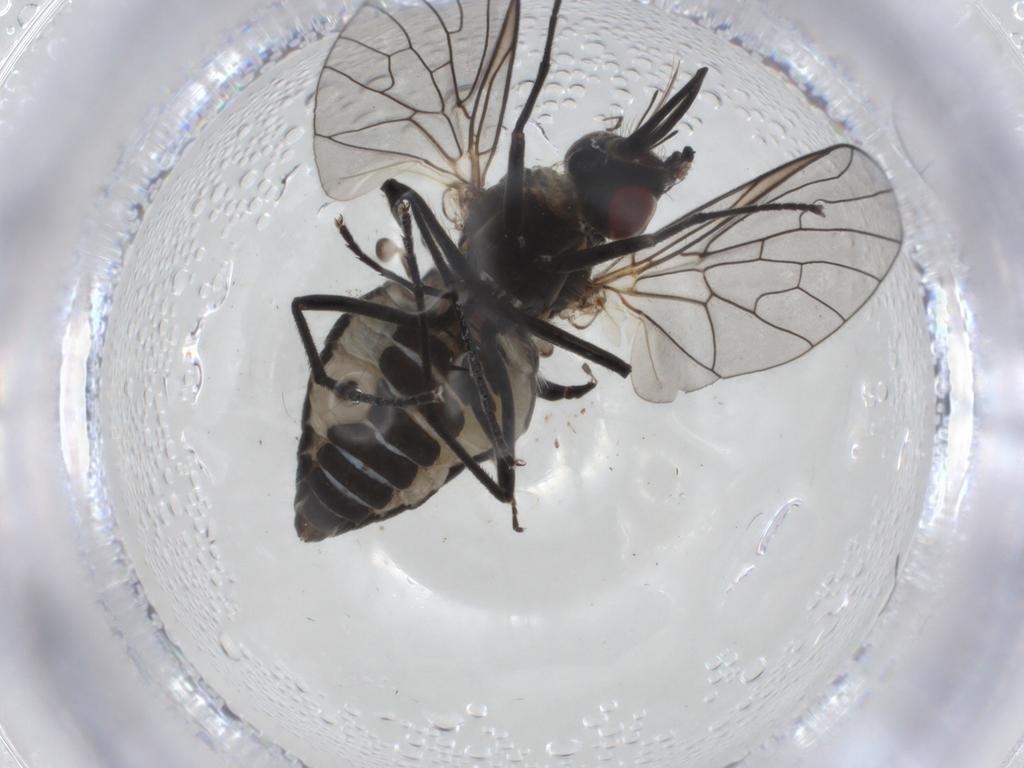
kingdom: Animalia
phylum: Arthropoda
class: Insecta
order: Diptera
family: Bombyliidae
